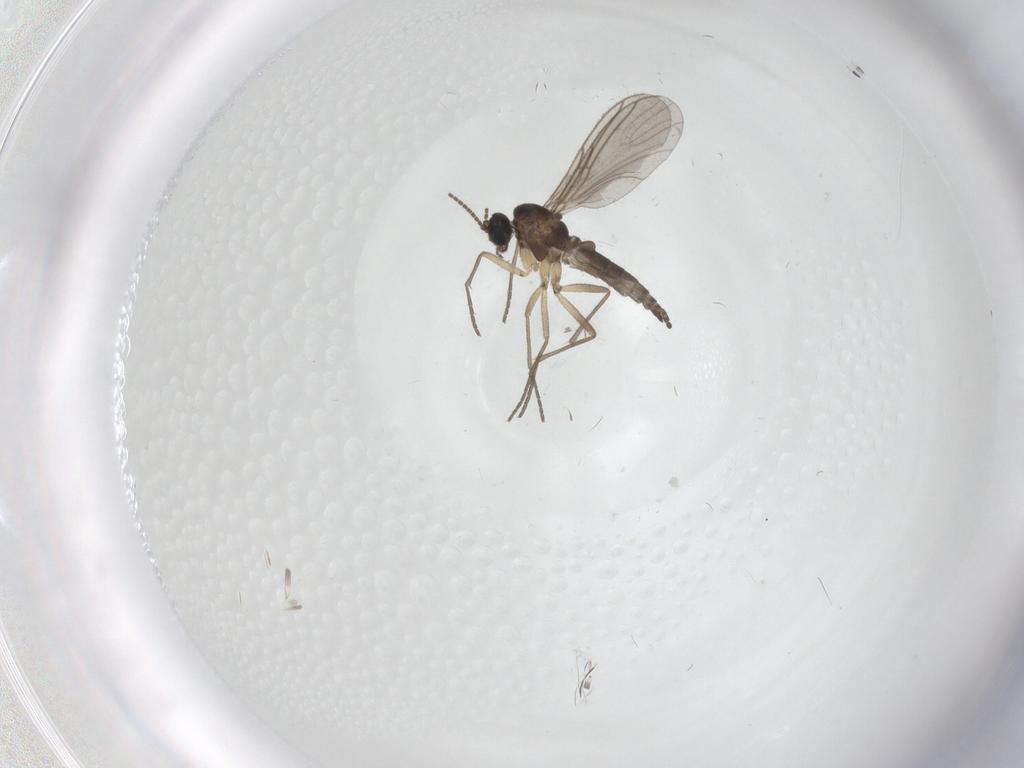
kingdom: Animalia
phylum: Arthropoda
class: Insecta
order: Diptera
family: Sciaridae
